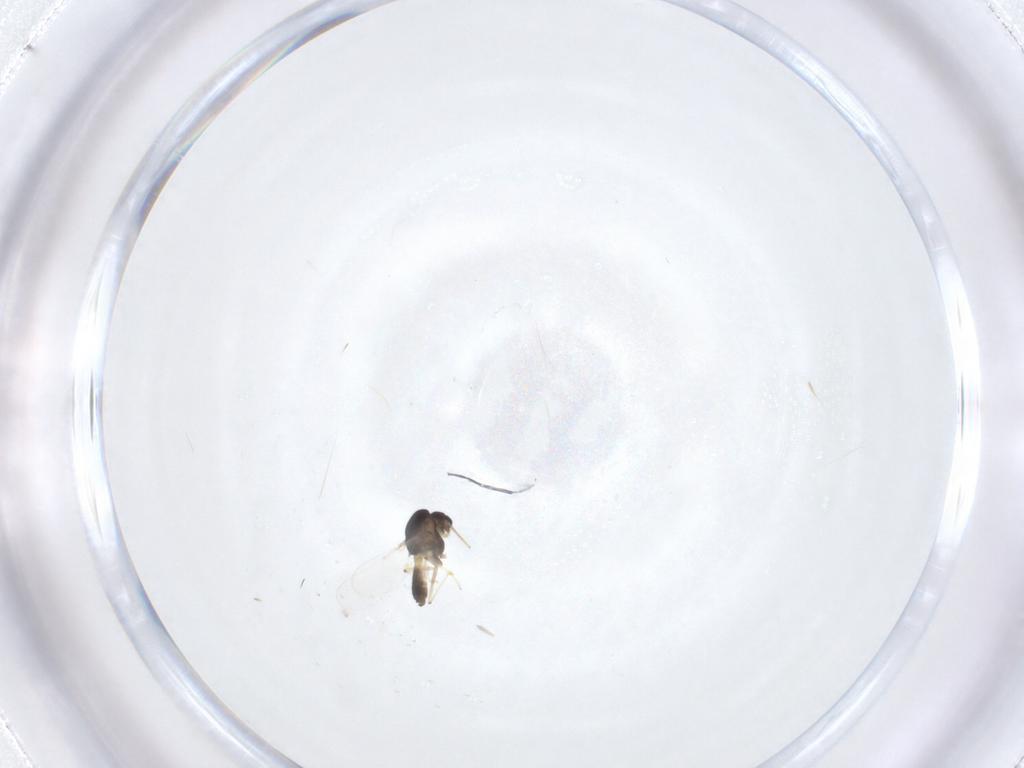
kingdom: Animalia
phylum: Arthropoda
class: Insecta
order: Diptera
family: Chironomidae
